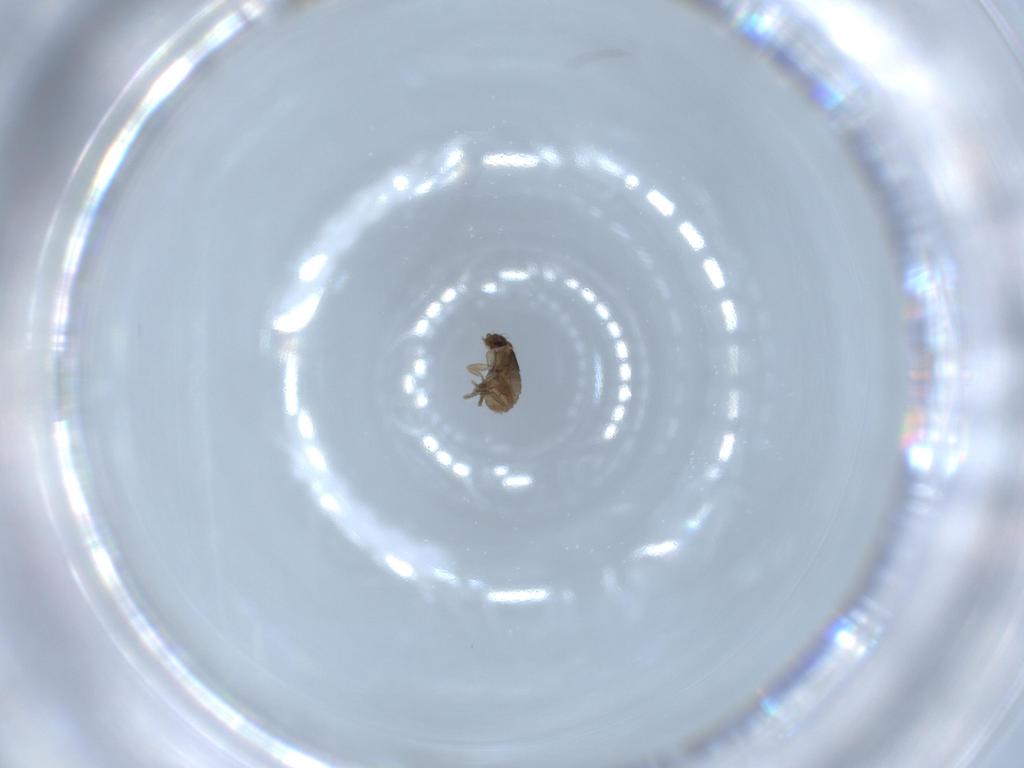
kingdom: Animalia
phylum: Arthropoda
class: Insecta
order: Diptera
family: Phoridae
